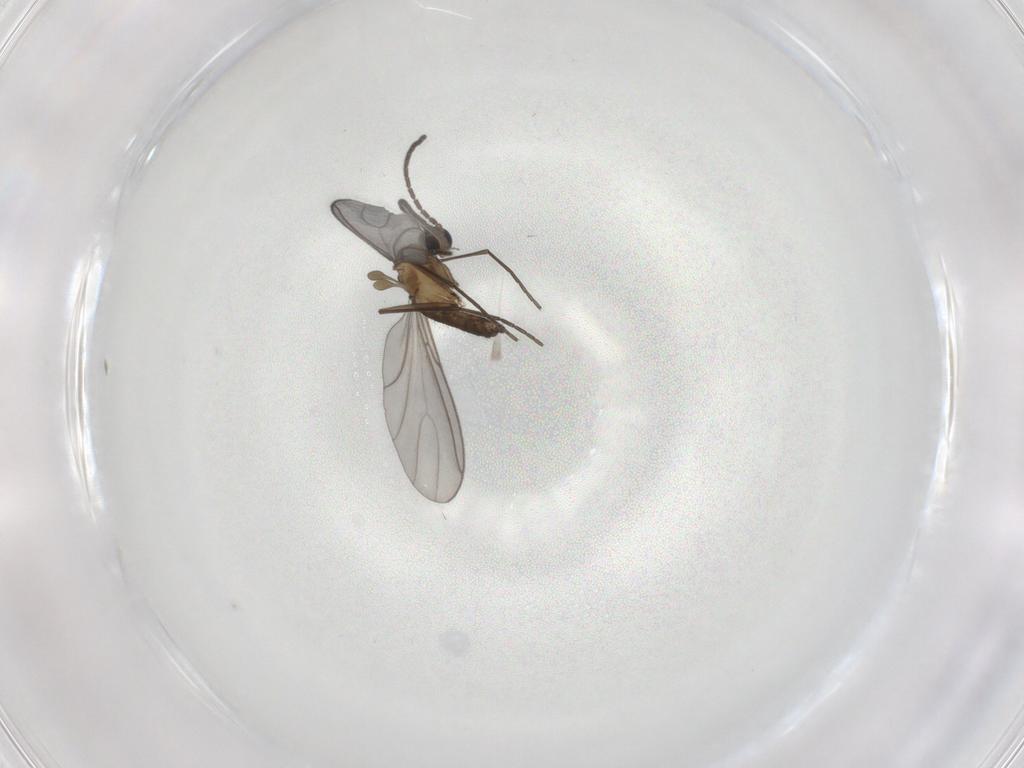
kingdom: Animalia
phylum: Arthropoda
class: Insecta
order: Diptera
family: Sciaridae
